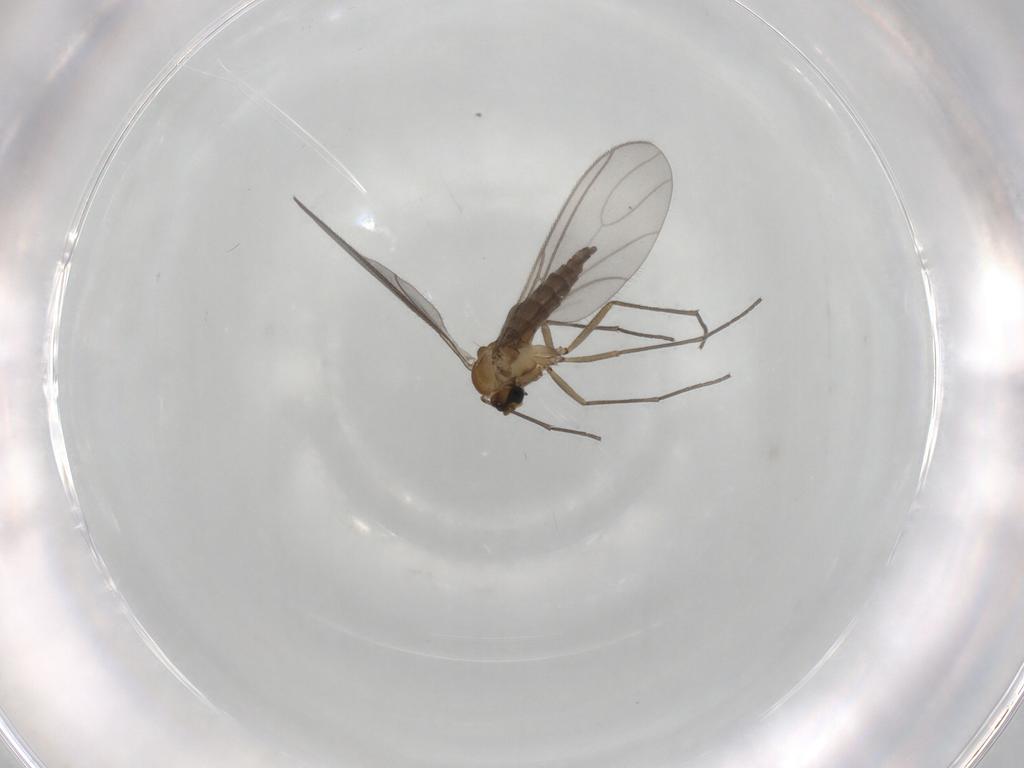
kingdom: Animalia
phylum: Arthropoda
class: Insecta
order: Diptera
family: Sciaridae
